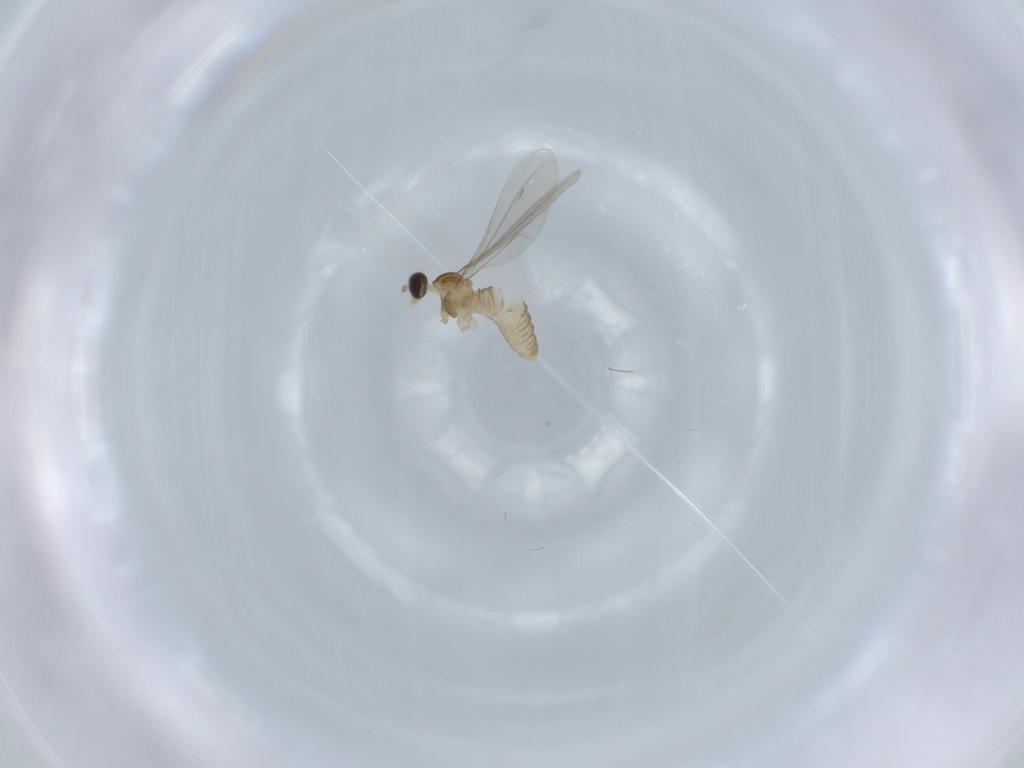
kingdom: Animalia
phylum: Arthropoda
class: Insecta
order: Diptera
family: Cecidomyiidae
